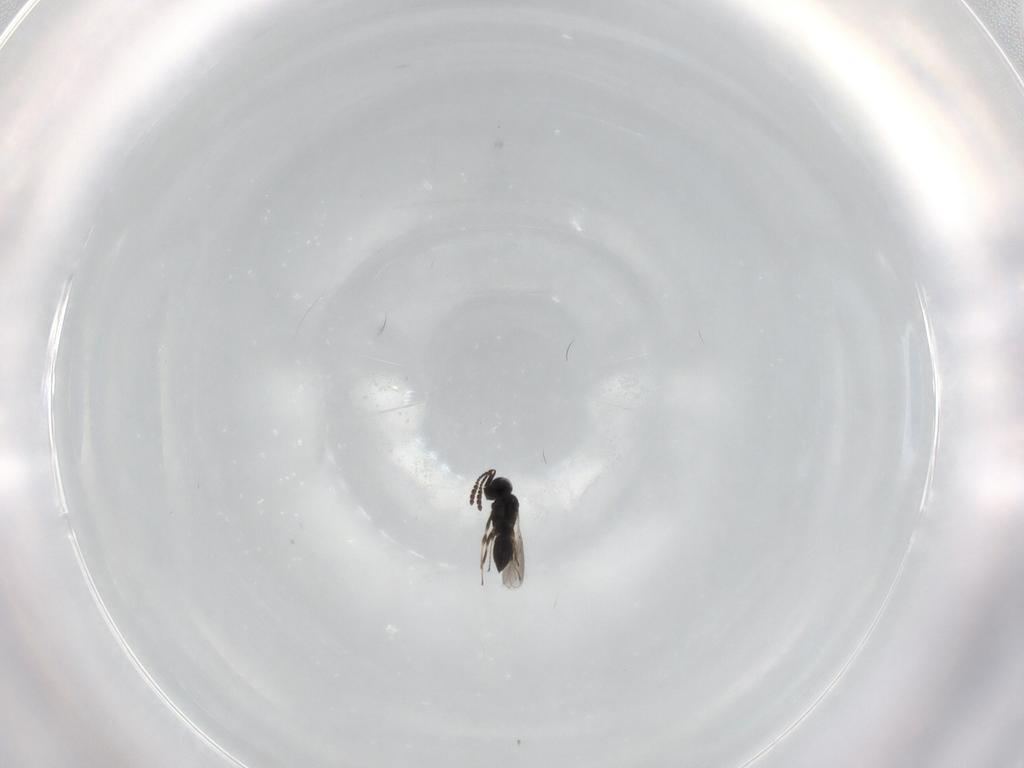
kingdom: Animalia
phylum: Arthropoda
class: Insecta
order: Hymenoptera
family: Scelionidae
